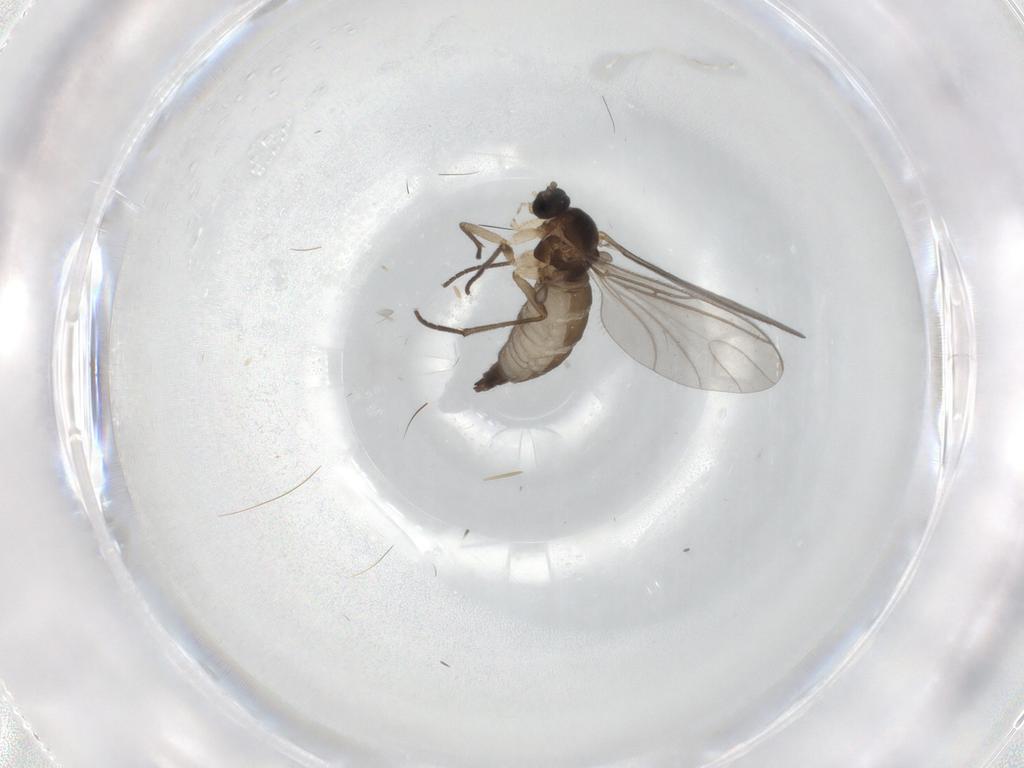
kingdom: Animalia
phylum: Arthropoda
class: Insecta
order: Diptera
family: Sciaridae
